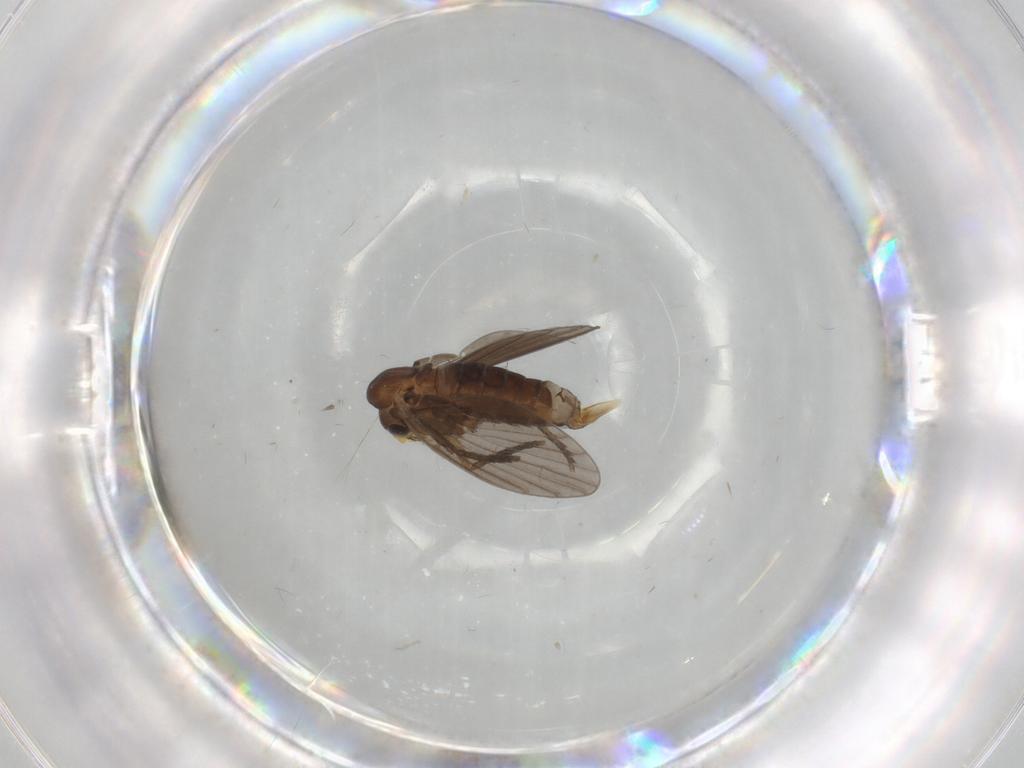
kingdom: Animalia
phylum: Arthropoda
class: Insecta
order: Diptera
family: Psychodidae
